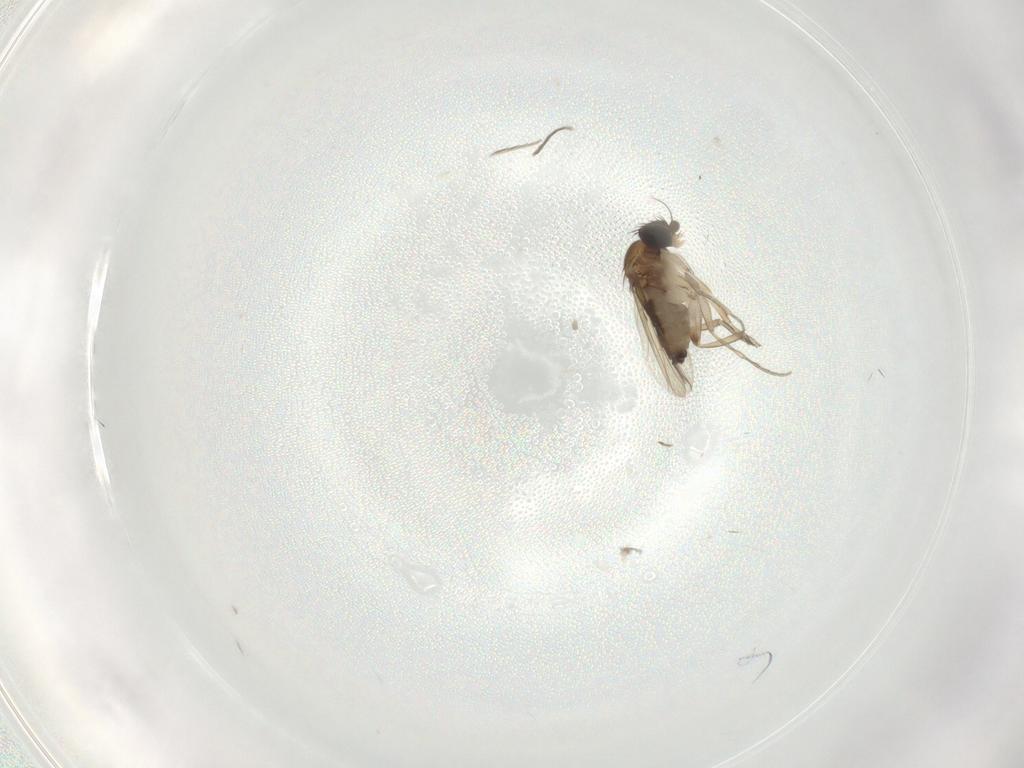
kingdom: Animalia
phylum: Arthropoda
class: Insecta
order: Diptera
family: Phoridae
